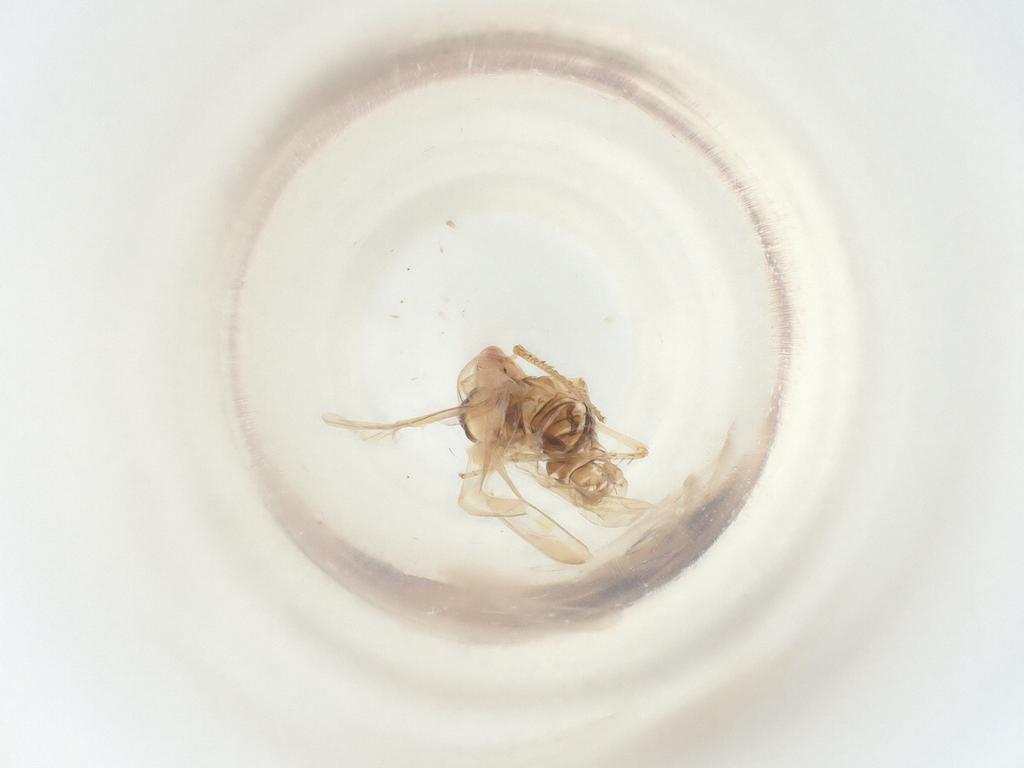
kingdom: Animalia
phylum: Arthropoda
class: Insecta
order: Hemiptera
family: Cicadellidae
